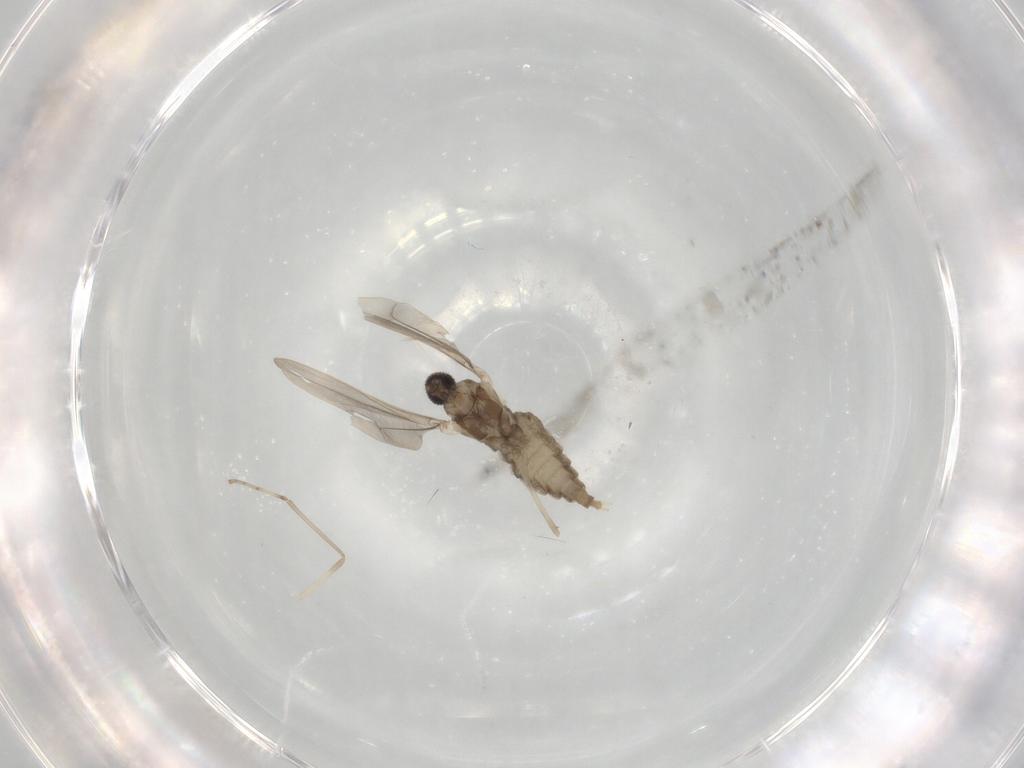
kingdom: Animalia
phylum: Arthropoda
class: Insecta
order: Diptera
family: Cecidomyiidae
